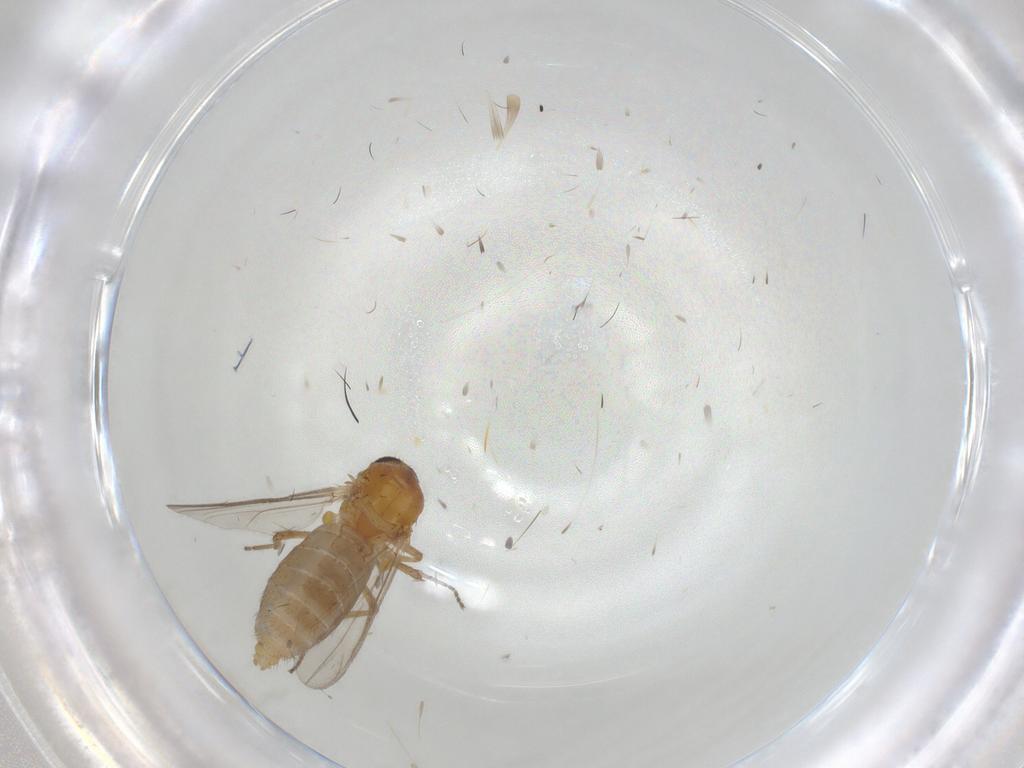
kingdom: Animalia
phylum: Arthropoda
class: Insecta
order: Diptera
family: Ceratopogonidae
